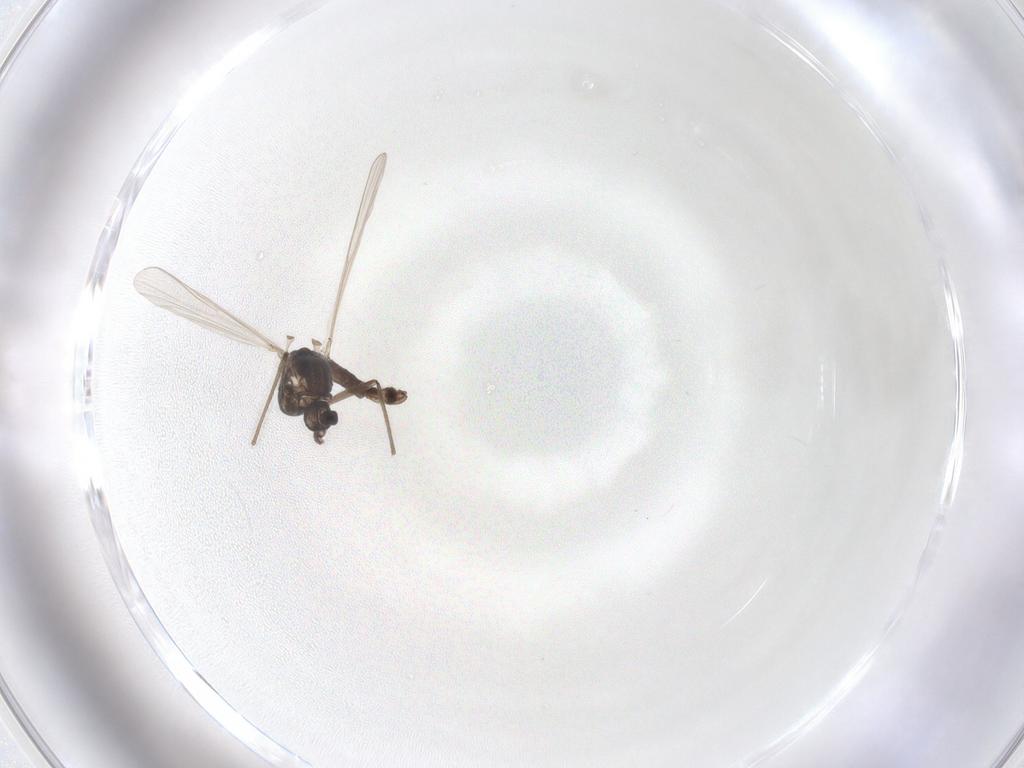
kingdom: Animalia
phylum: Arthropoda
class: Insecta
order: Diptera
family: Chironomidae
